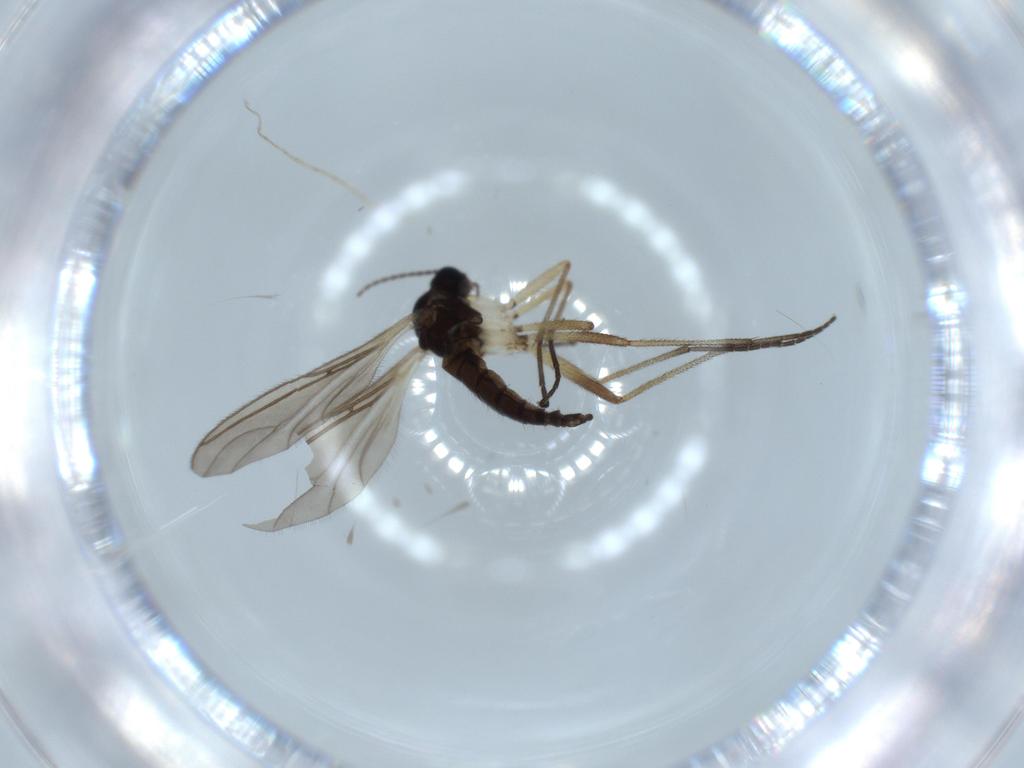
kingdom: Animalia
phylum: Arthropoda
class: Insecta
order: Diptera
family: Sciaridae
